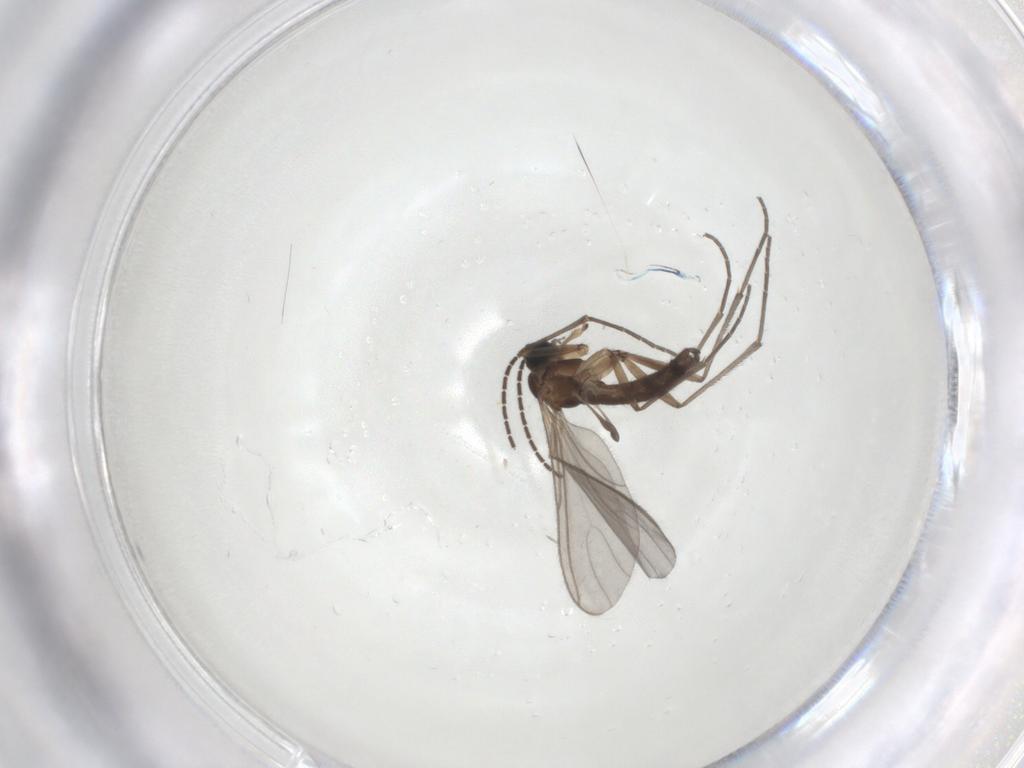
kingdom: Animalia
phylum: Arthropoda
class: Insecta
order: Diptera
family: Sciaridae
